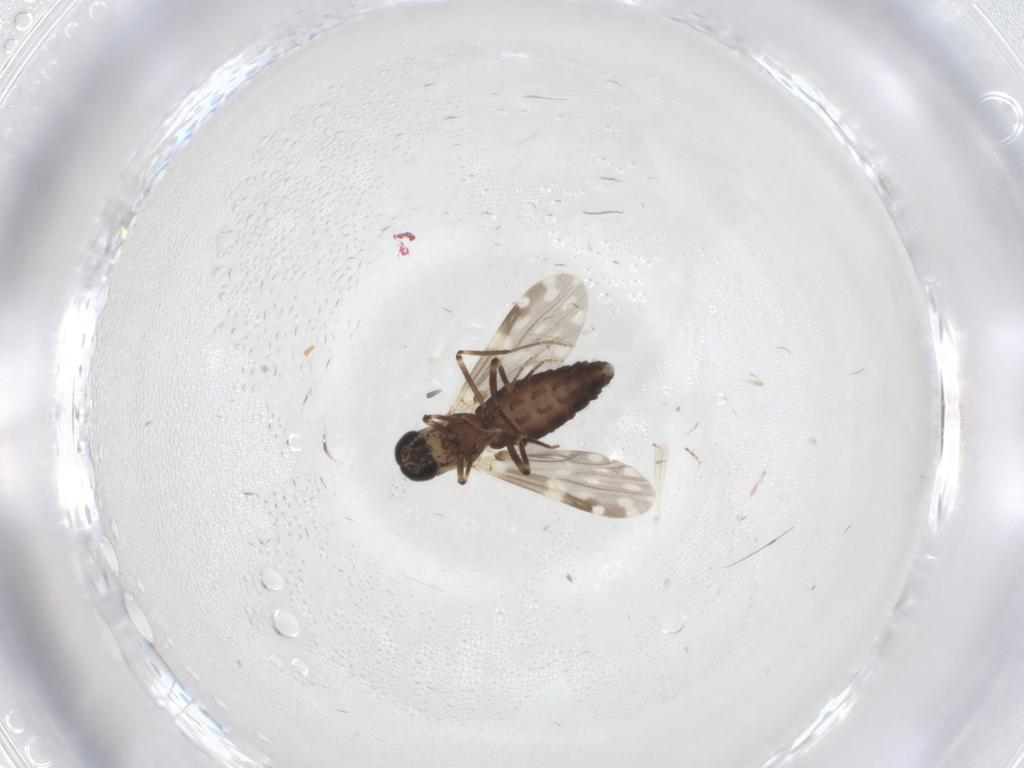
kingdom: Animalia
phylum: Arthropoda
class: Insecta
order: Diptera
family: Ceratopogonidae
